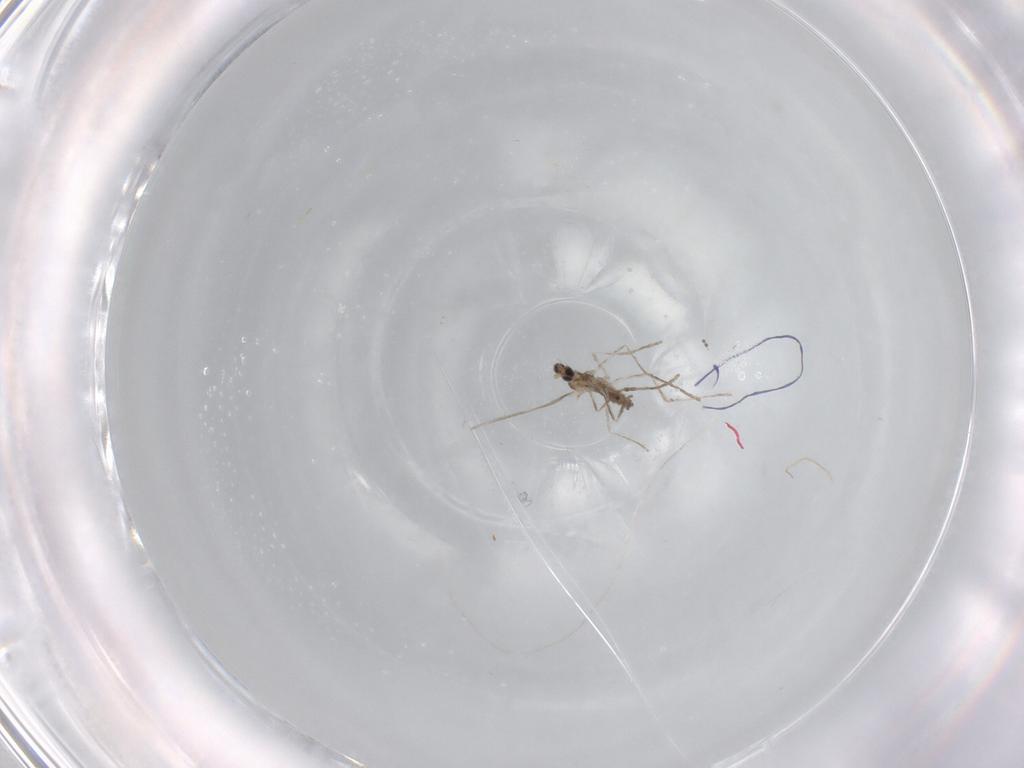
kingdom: Animalia
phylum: Arthropoda
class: Insecta
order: Diptera
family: Cecidomyiidae
